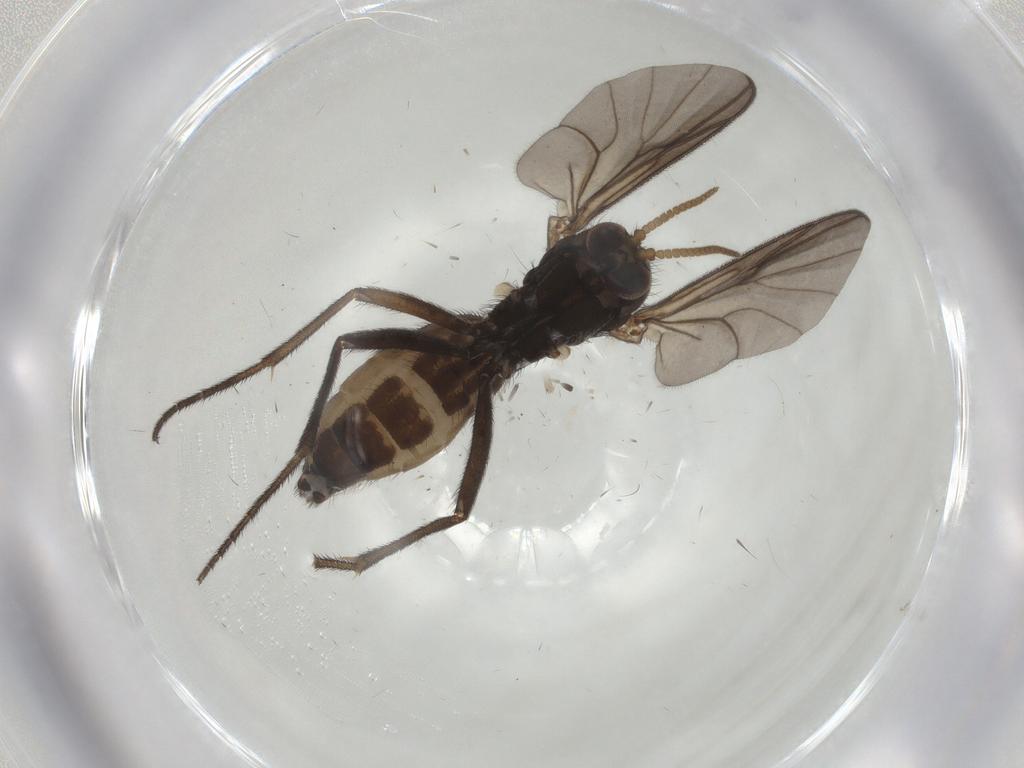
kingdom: Animalia
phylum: Arthropoda
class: Insecta
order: Diptera
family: Mycetophilidae
